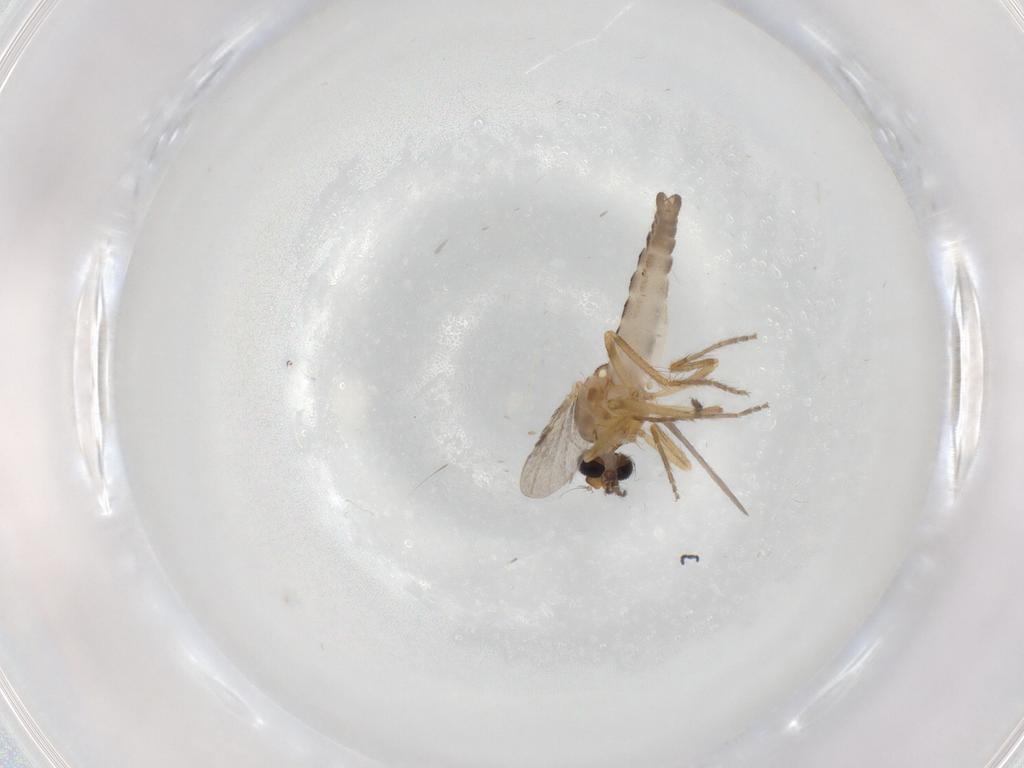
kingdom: Animalia
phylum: Arthropoda
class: Insecta
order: Diptera
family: Ceratopogonidae
